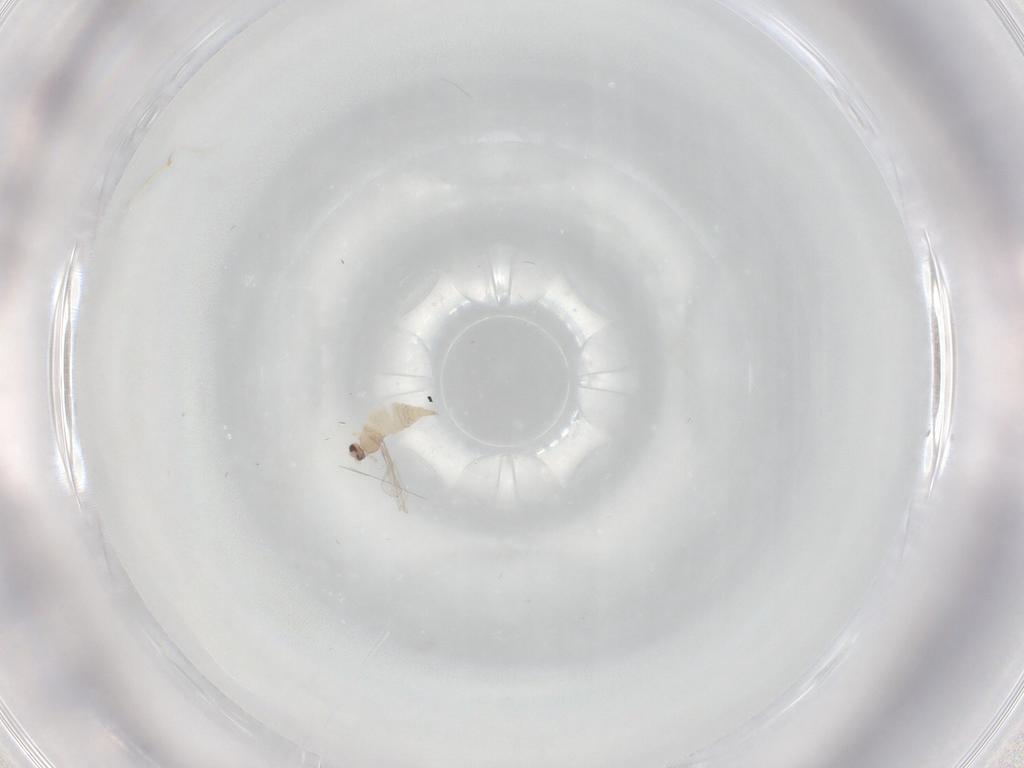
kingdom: Animalia
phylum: Arthropoda
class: Insecta
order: Diptera
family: Cecidomyiidae
